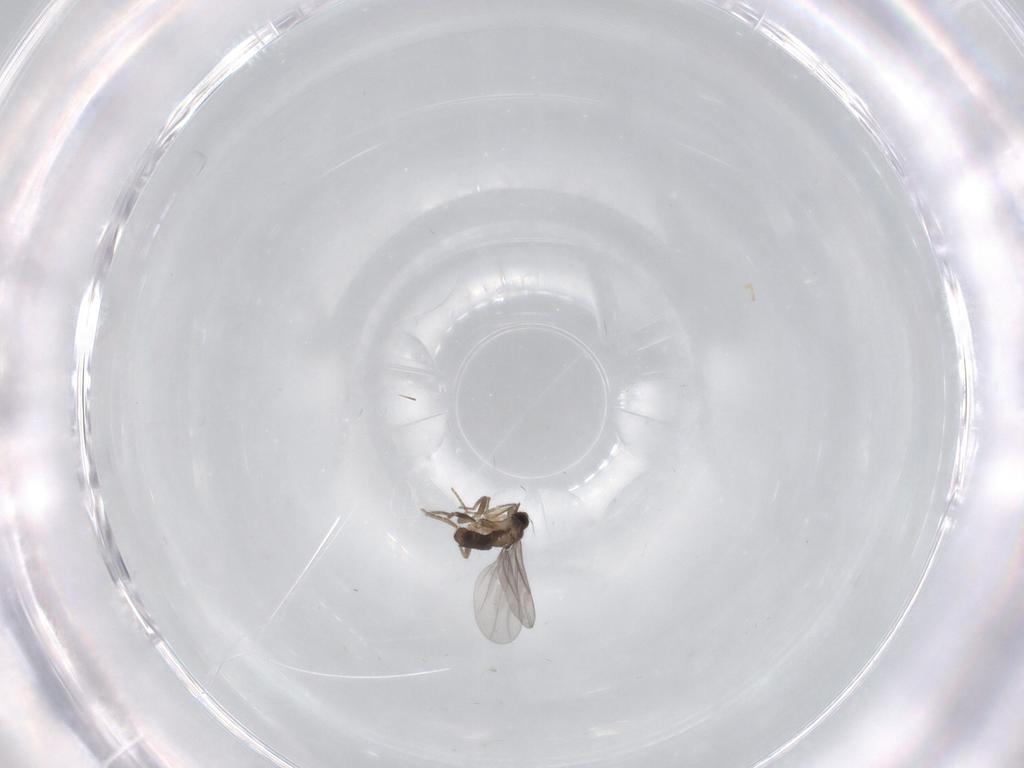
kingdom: Animalia
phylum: Arthropoda
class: Insecta
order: Diptera
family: Phoridae
